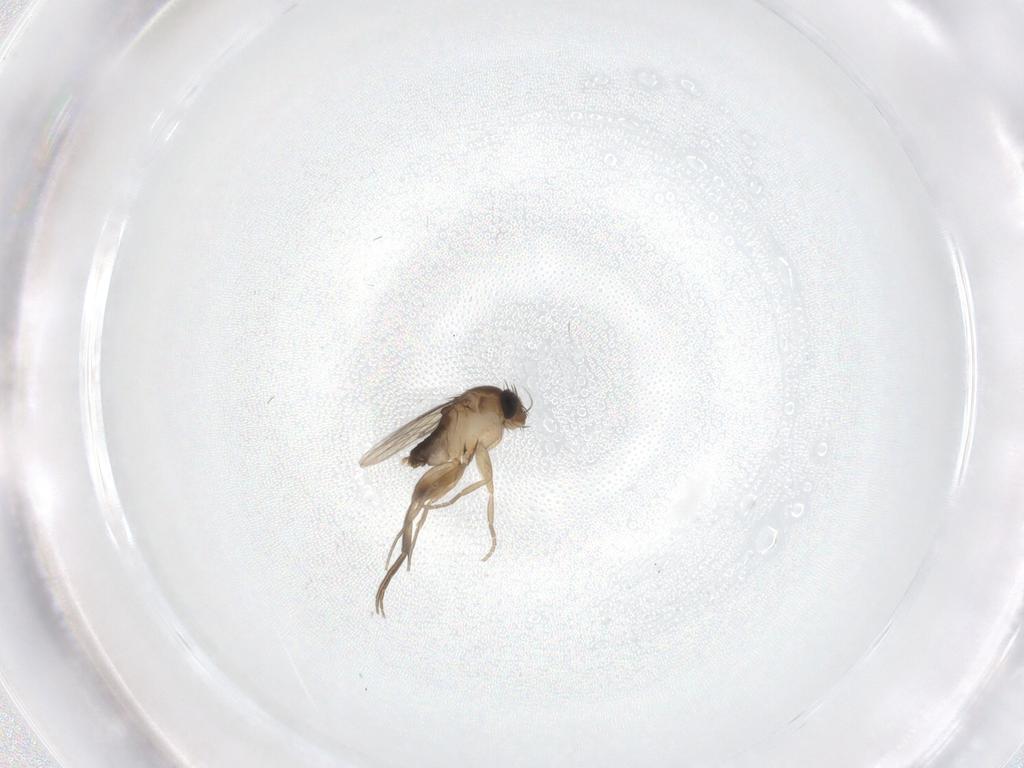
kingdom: Animalia
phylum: Arthropoda
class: Insecta
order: Diptera
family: Phoridae
